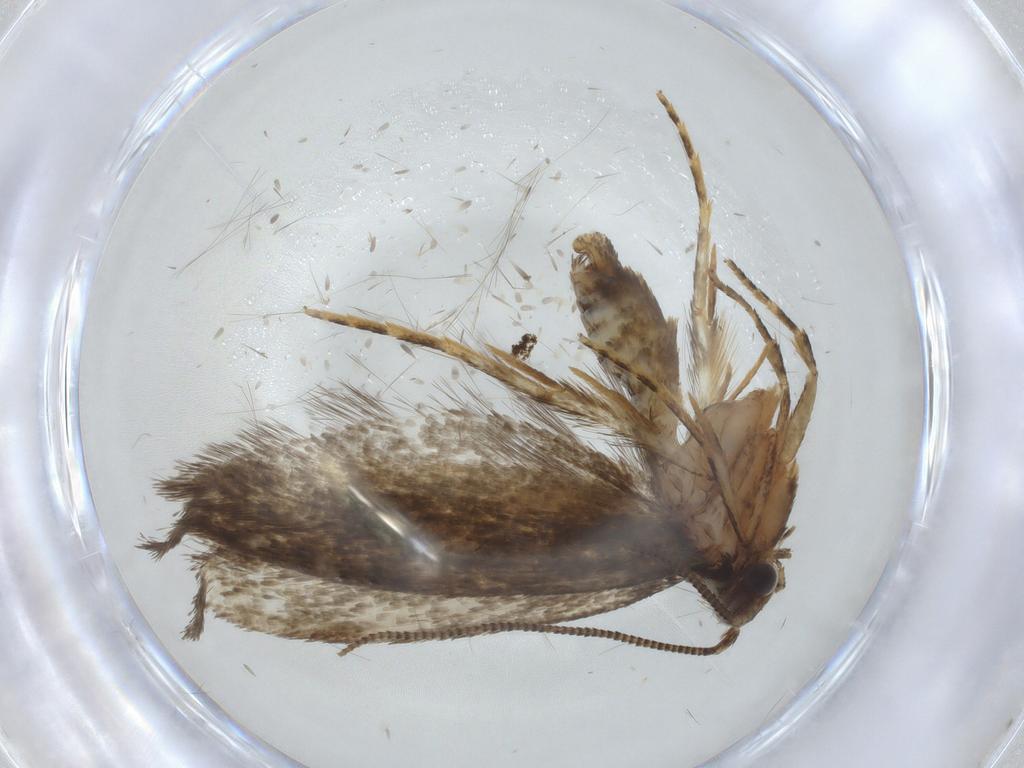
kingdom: Animalia
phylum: Arthropoda
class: Insecta
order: Lepidoptera
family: Crambidae
